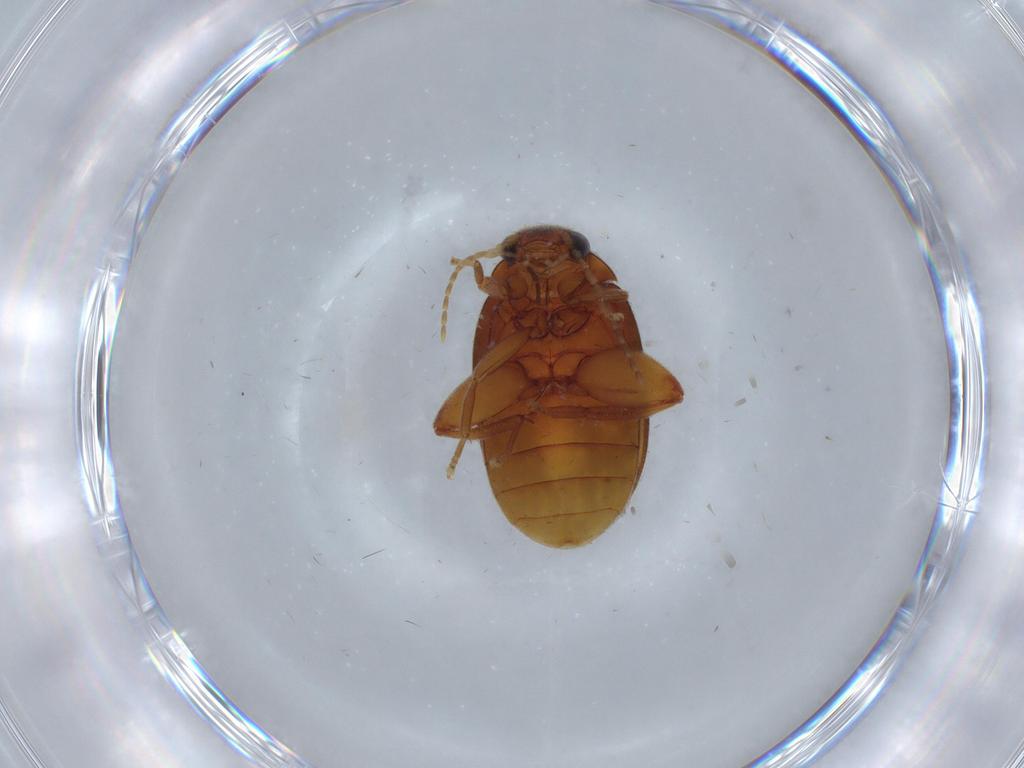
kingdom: Animalia
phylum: Arthropoda
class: Insecta
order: Coleoptera
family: Scirtidae
